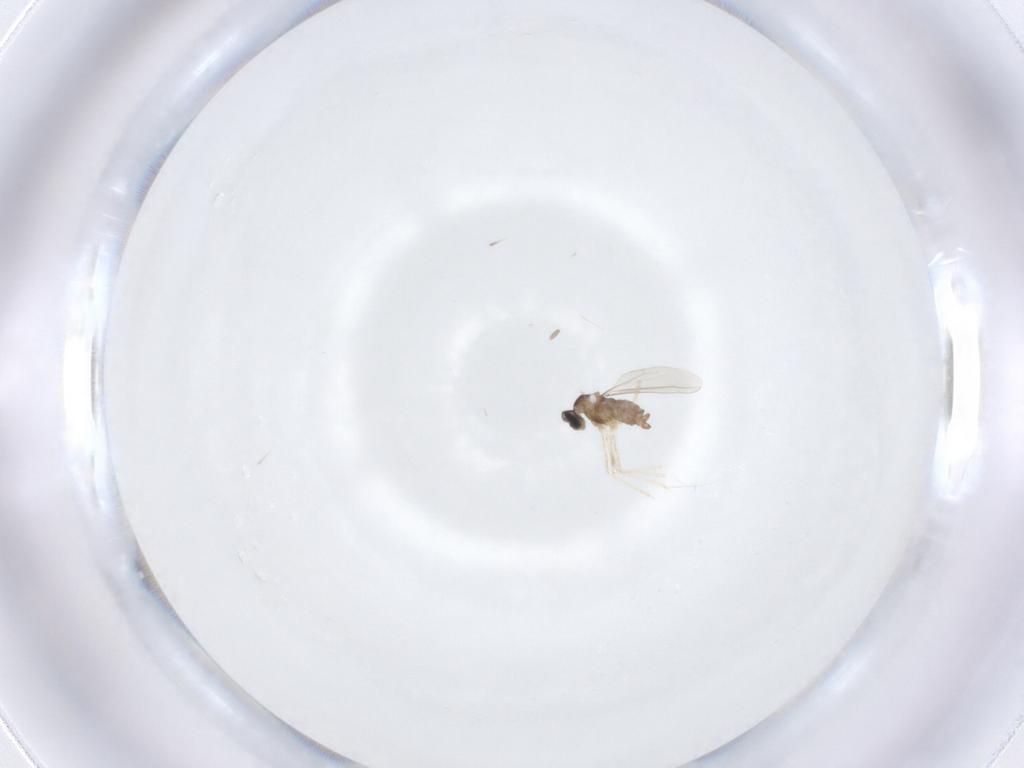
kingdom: Animalia
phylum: Arthropoda
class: Insecta
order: Diptera
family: Cecidomyiidae
